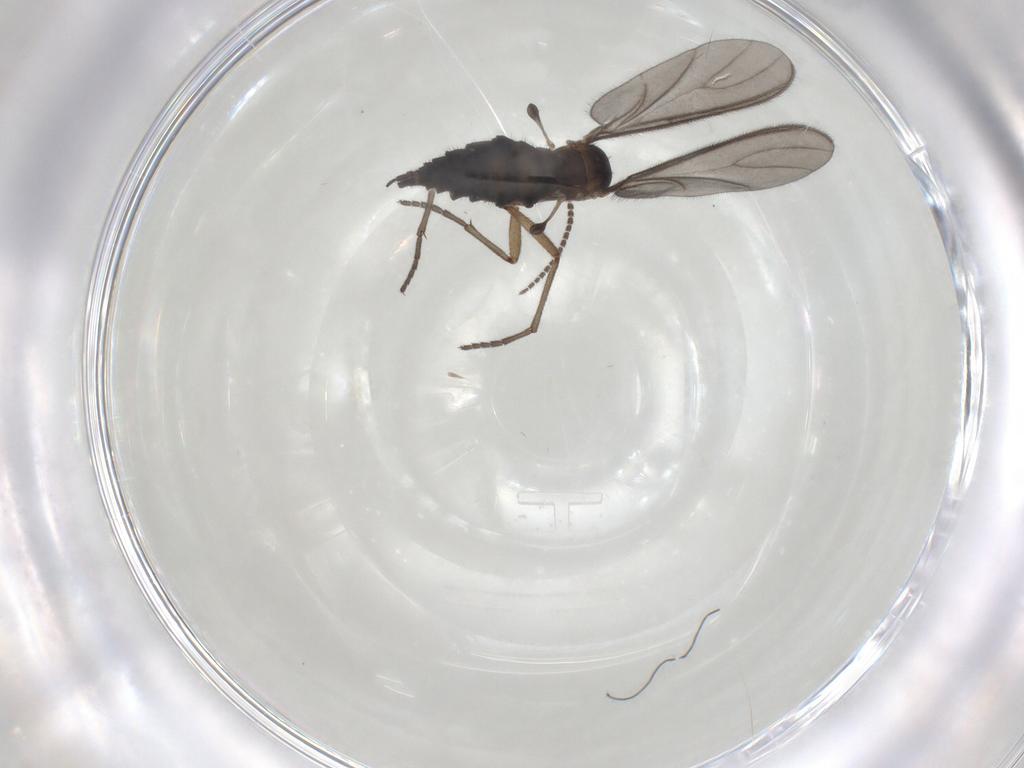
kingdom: Animalia
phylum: Arthropoda
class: Insecta
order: Diptera
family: Sciaridae
